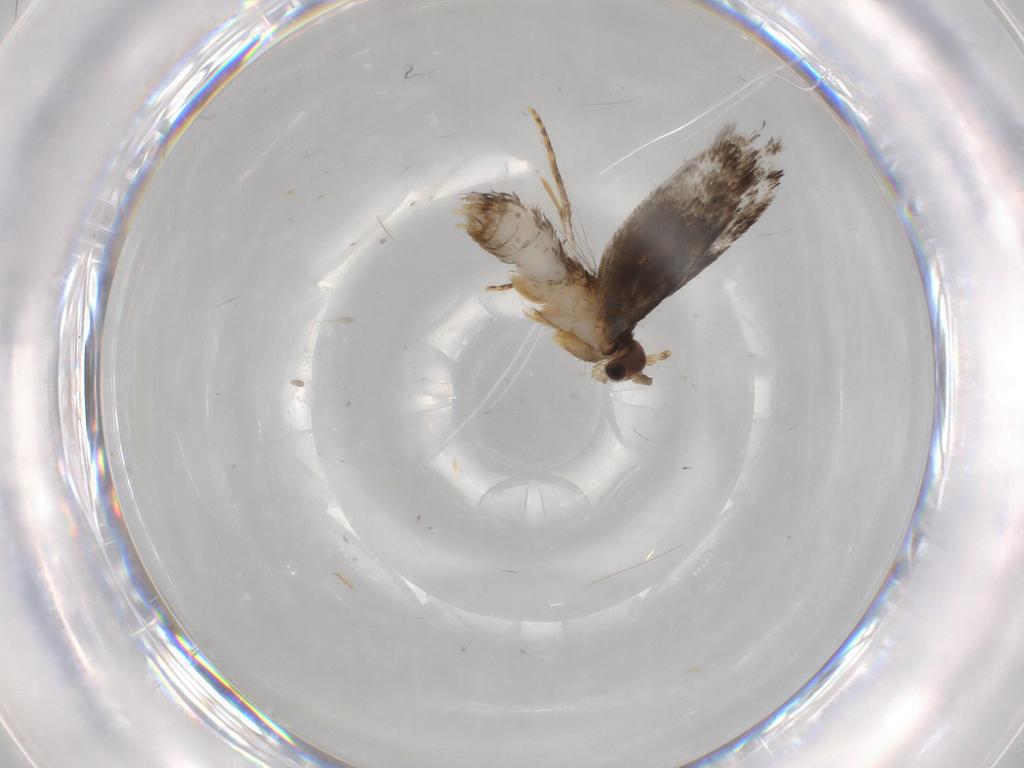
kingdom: Animalia
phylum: Arthropoda
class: Insecta
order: Lepidoptera
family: Tineidae
